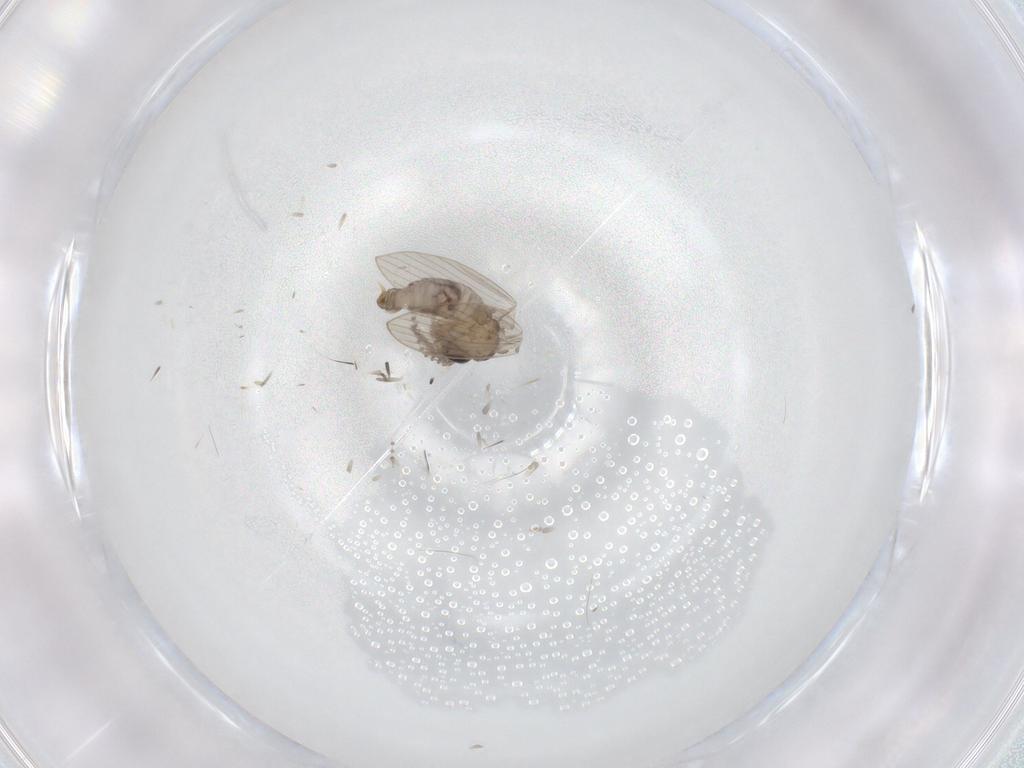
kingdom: Animalia
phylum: Arthropoda
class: Insecta
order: Diptera
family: Psychodidae
